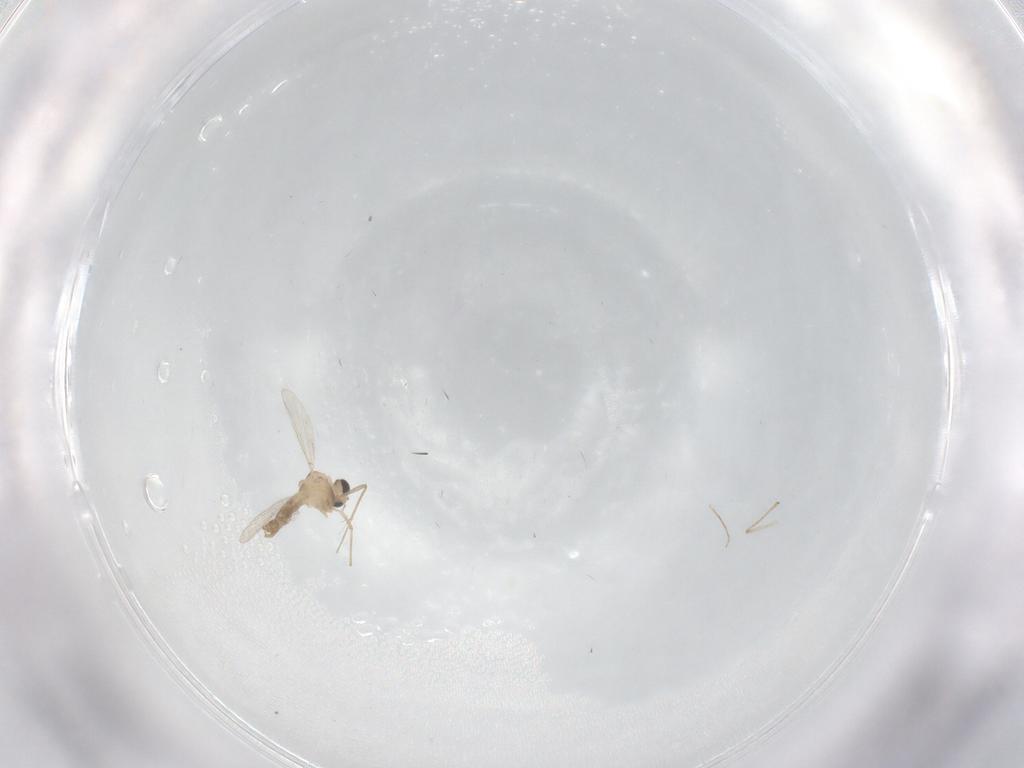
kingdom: Animalia
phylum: Arthropoda
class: Insecta
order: Diptera
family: Chironomidae
